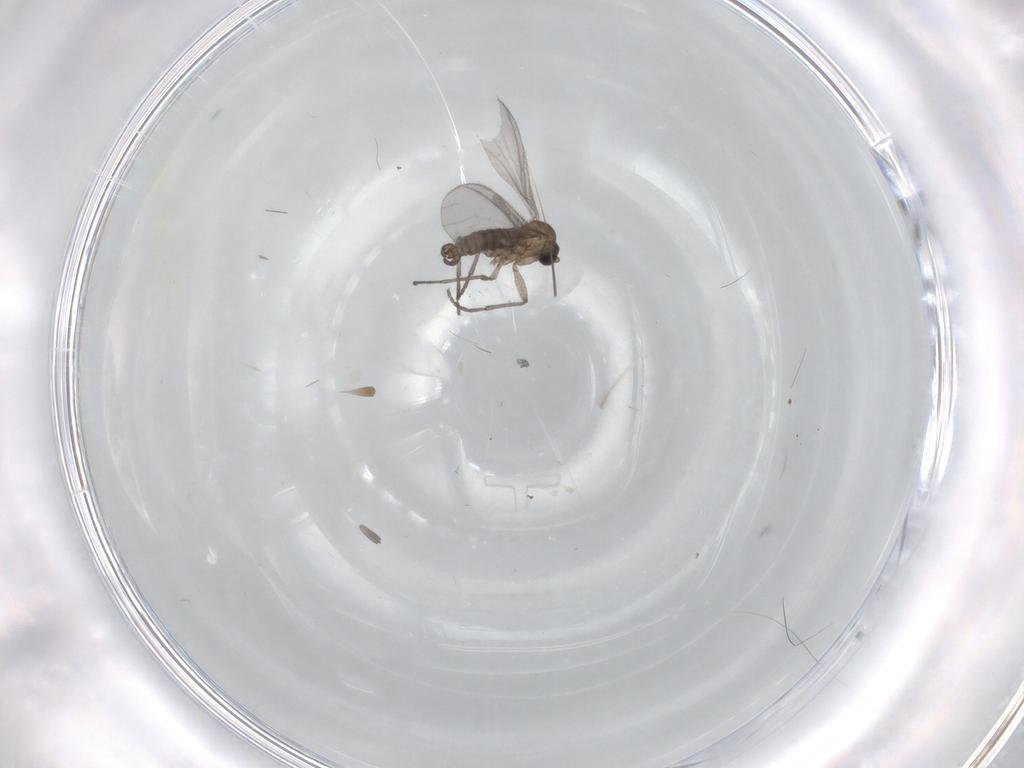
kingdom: Animalia
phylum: Arthropoda
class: Insecta
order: Diptera
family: Sciaridae
